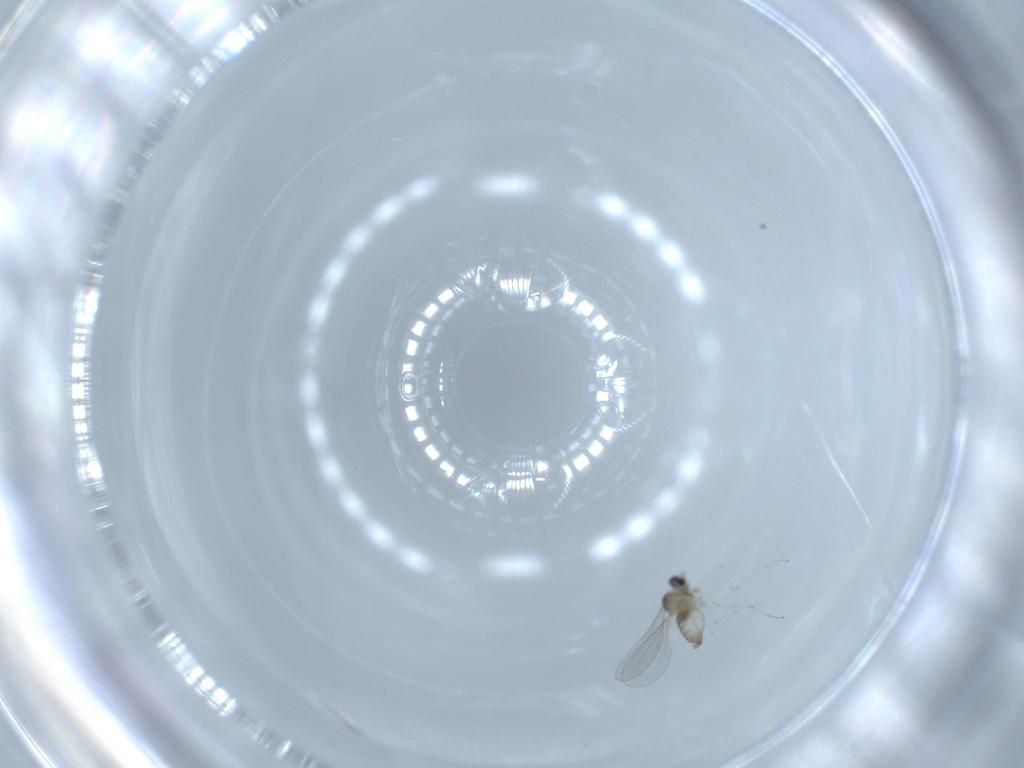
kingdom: Animalia
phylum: Arthropoda
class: Insecta
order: Diptera
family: Cecidomyiidae
